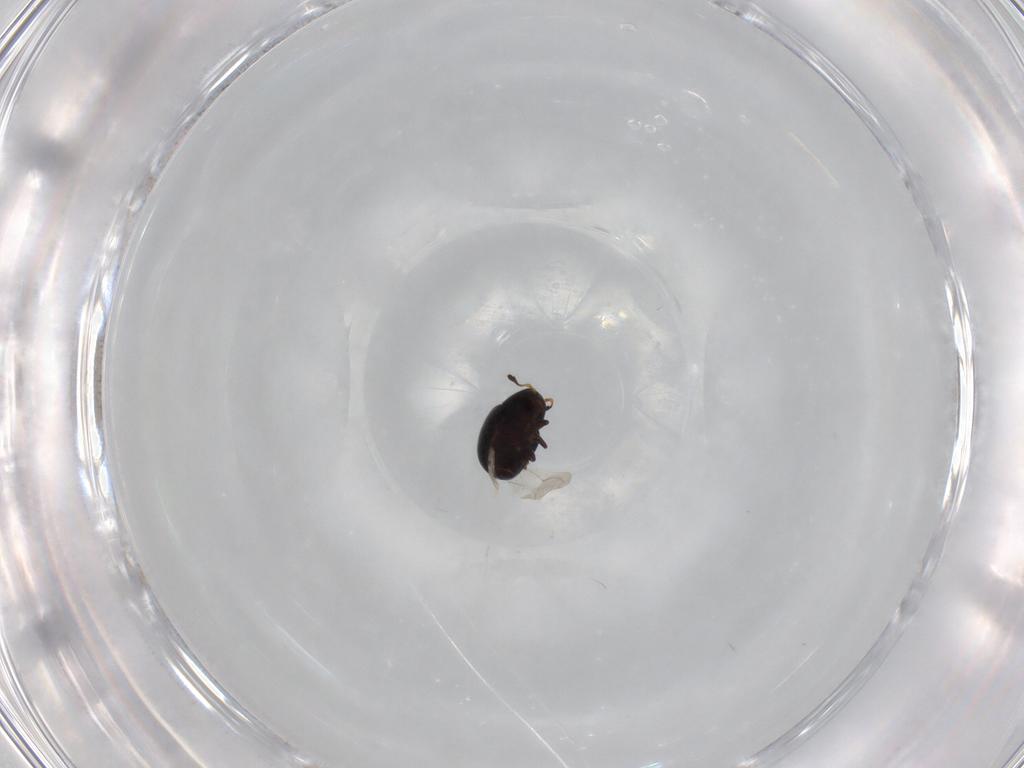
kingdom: Animalia
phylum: Arthropoda
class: Insecta
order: Coleoptera
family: Anthribidae
